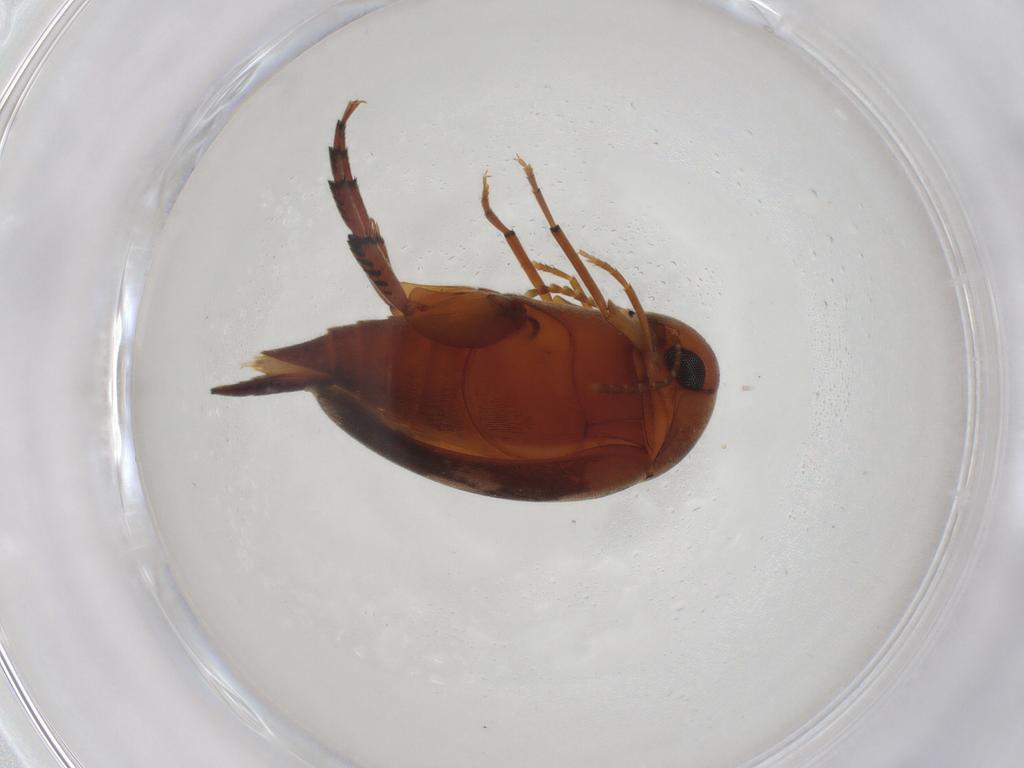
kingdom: Animalia
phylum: Arthropoda
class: Insecta
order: Coleoptera
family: Mordellidae
